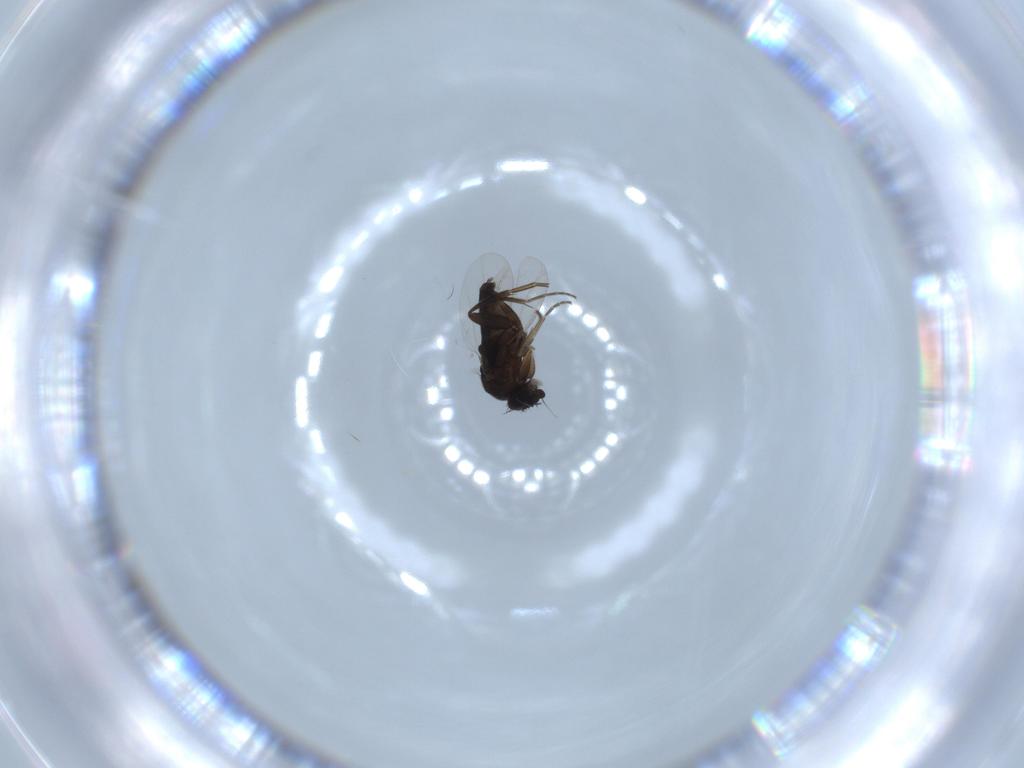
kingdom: Animalia
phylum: Arthropoda
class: Insecta
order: Diptera
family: Phoridae
